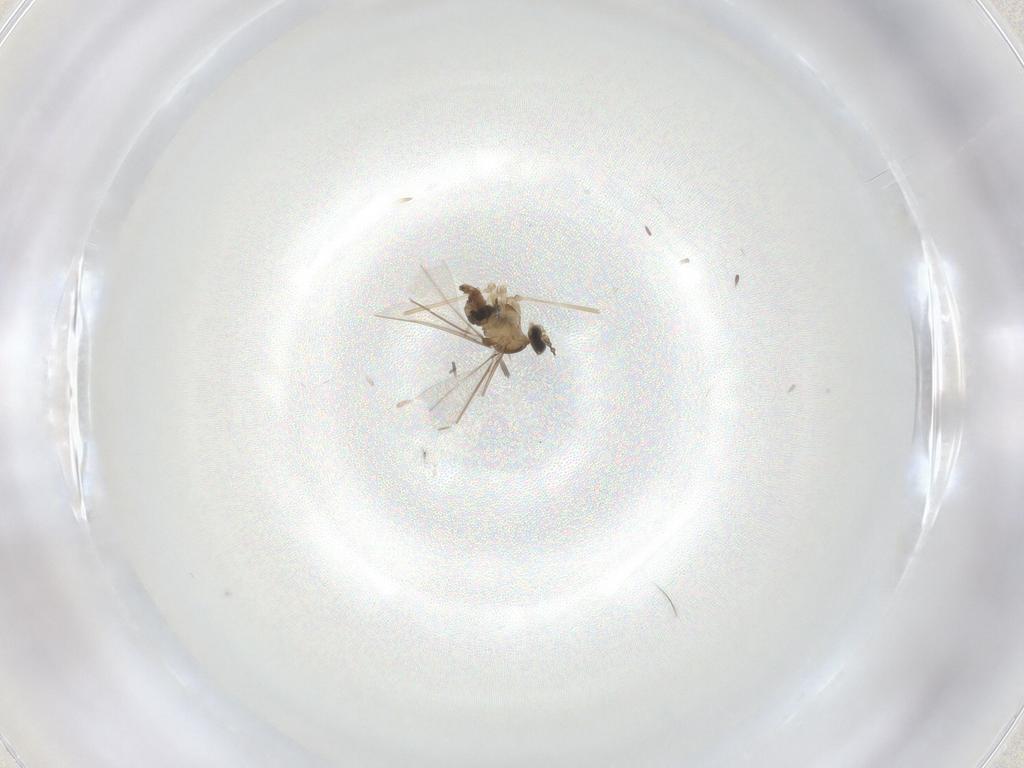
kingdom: Animalia
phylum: Arthropoda
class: Insecta
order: Diptera
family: Cecidomyiidae
